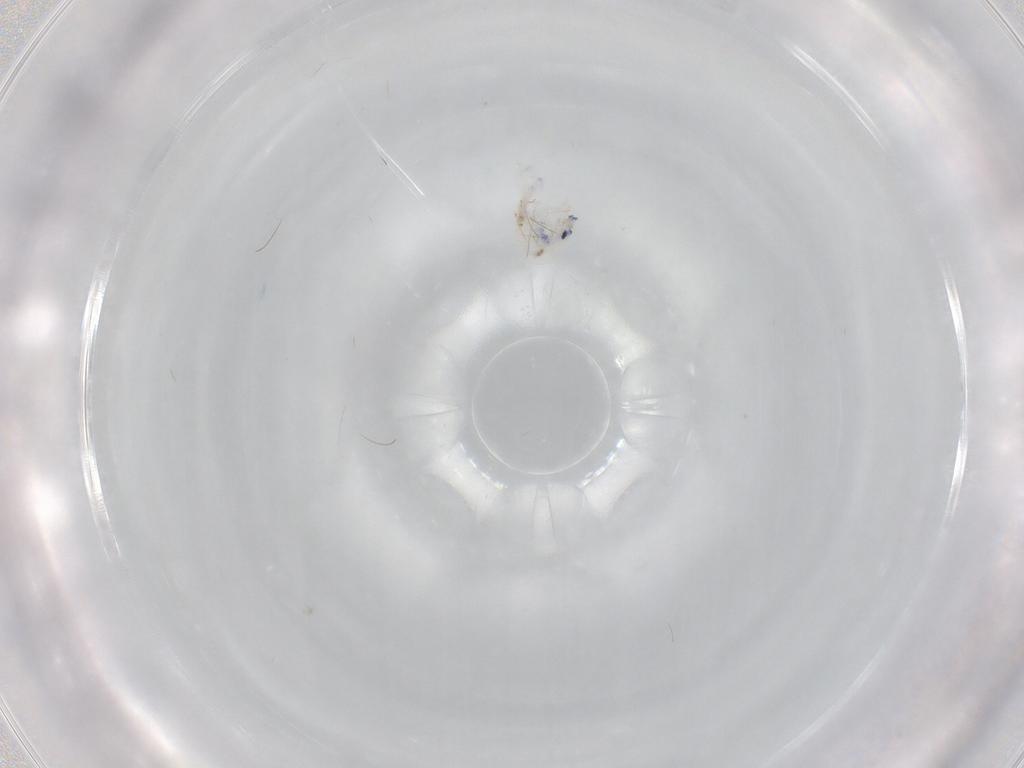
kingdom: Animalia
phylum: Arthropoda
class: Collembola
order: Entomobryomorpha
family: Entomobryidae
